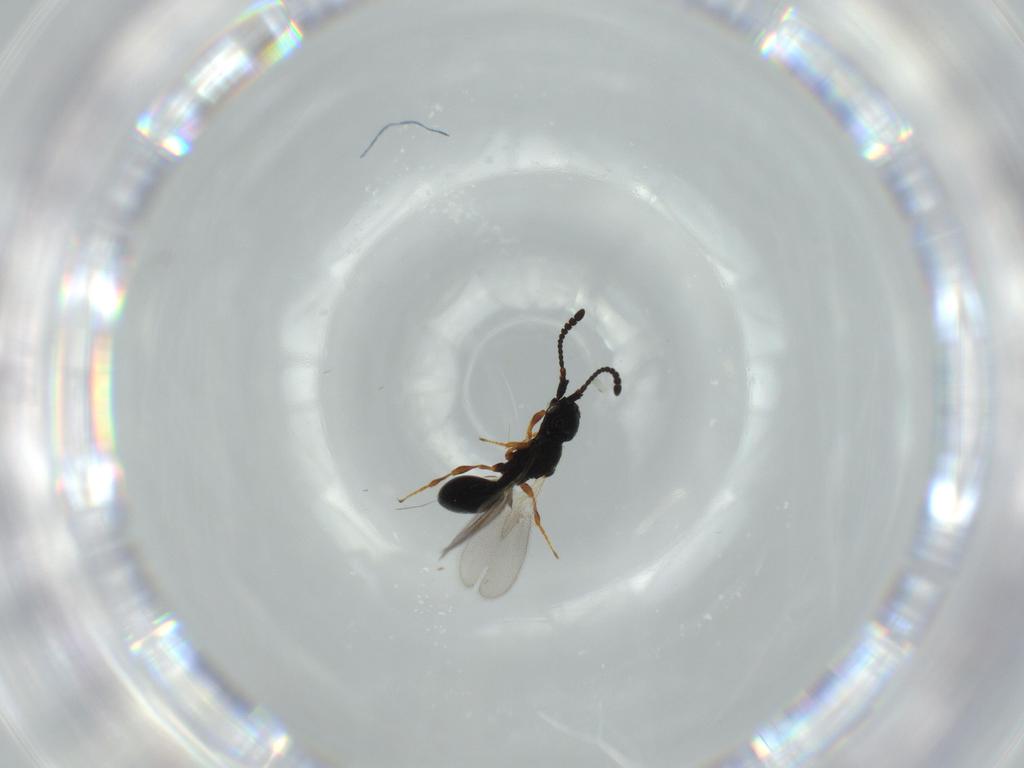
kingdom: Animalia
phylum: Arthropoda
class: Insecta
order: Hymenoptera
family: Diapriidae
